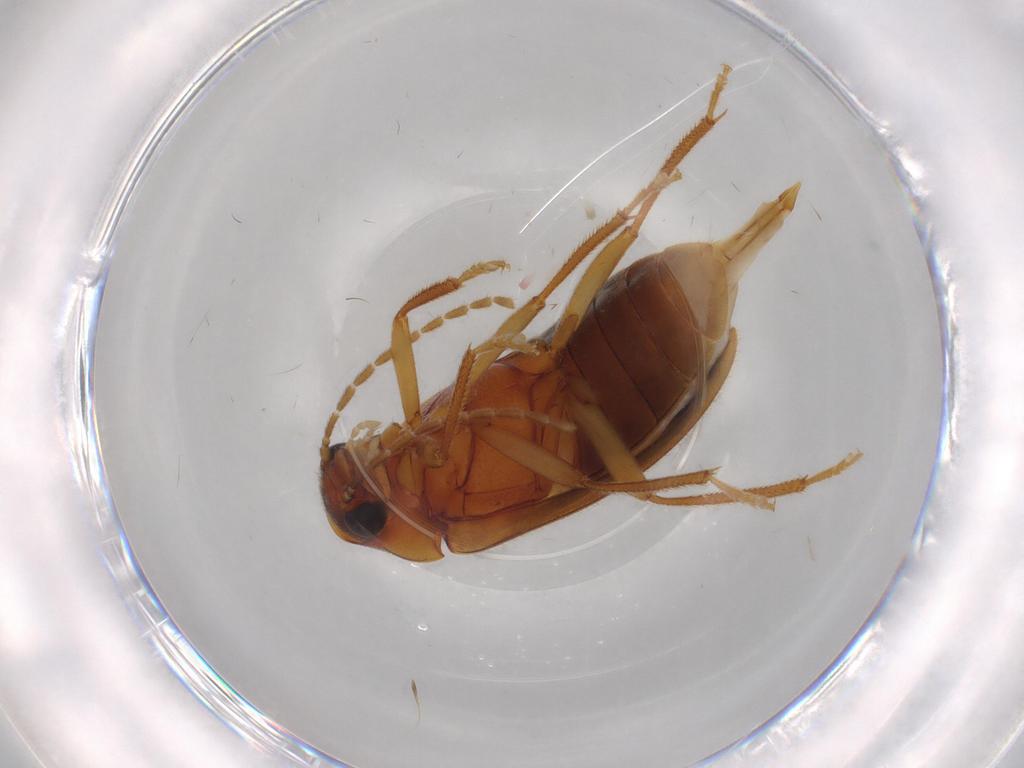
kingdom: Animalia
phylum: Arthropoda
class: Insecta
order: Coleoptera
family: Ptilodactylidae
